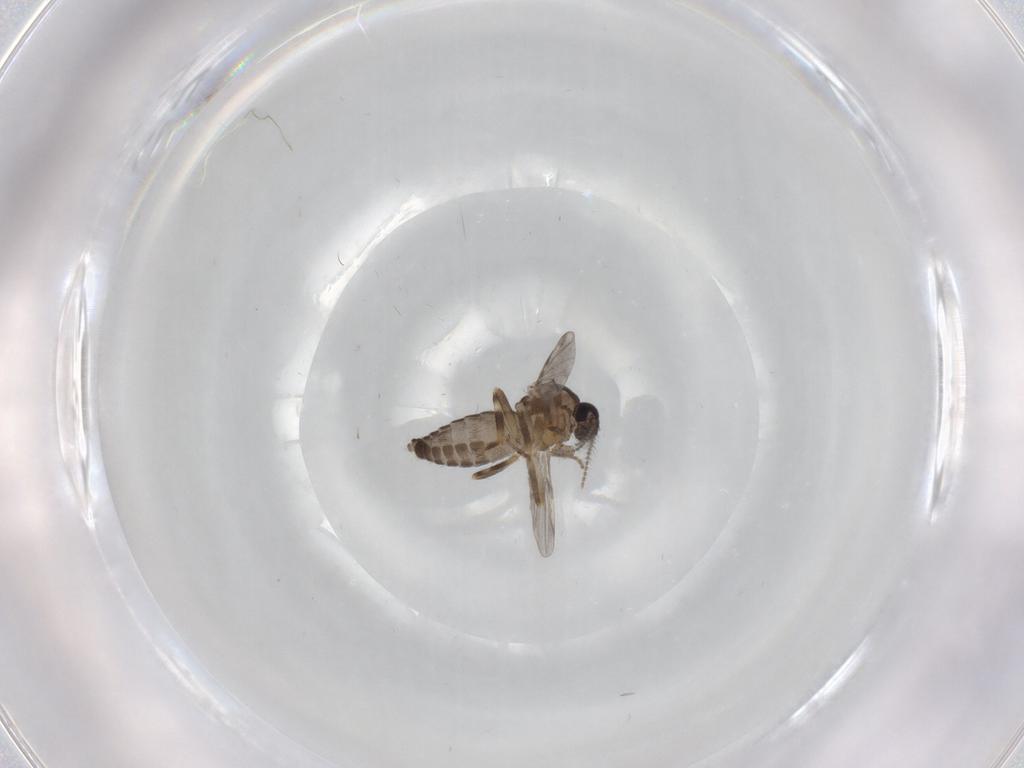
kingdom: Animalia
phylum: Arthropoda
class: Insecta
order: Diptera
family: Ceratopogonidae
